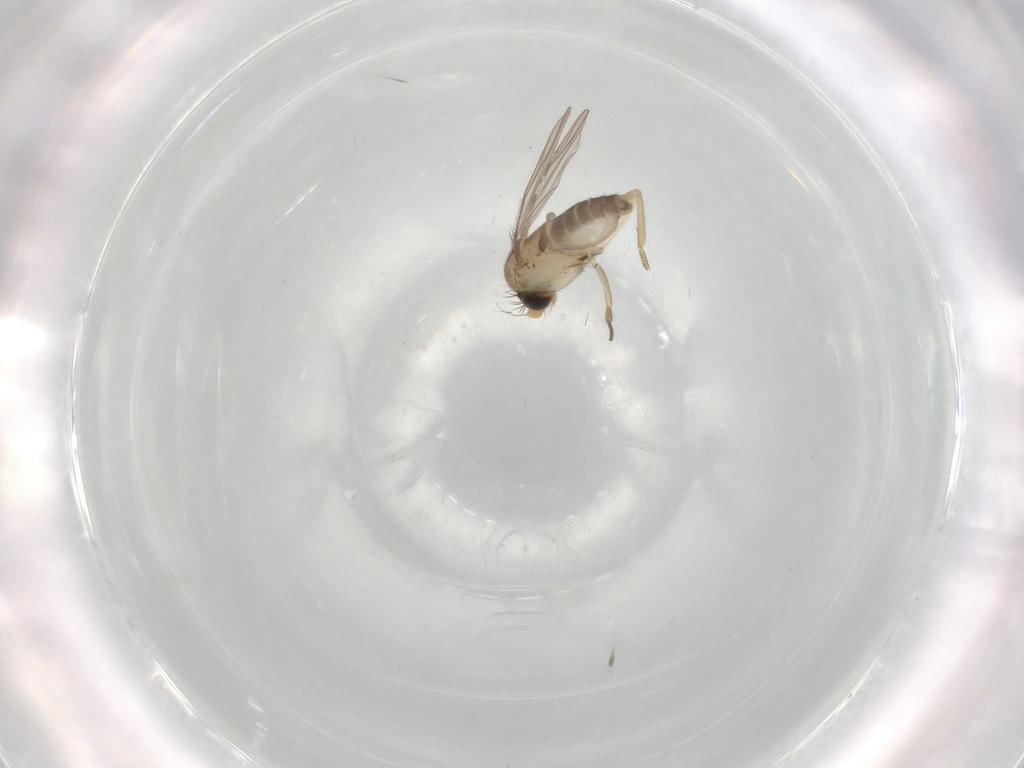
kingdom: Animalia
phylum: Arthropoda
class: Insecta
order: Diptera
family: Phoridae
